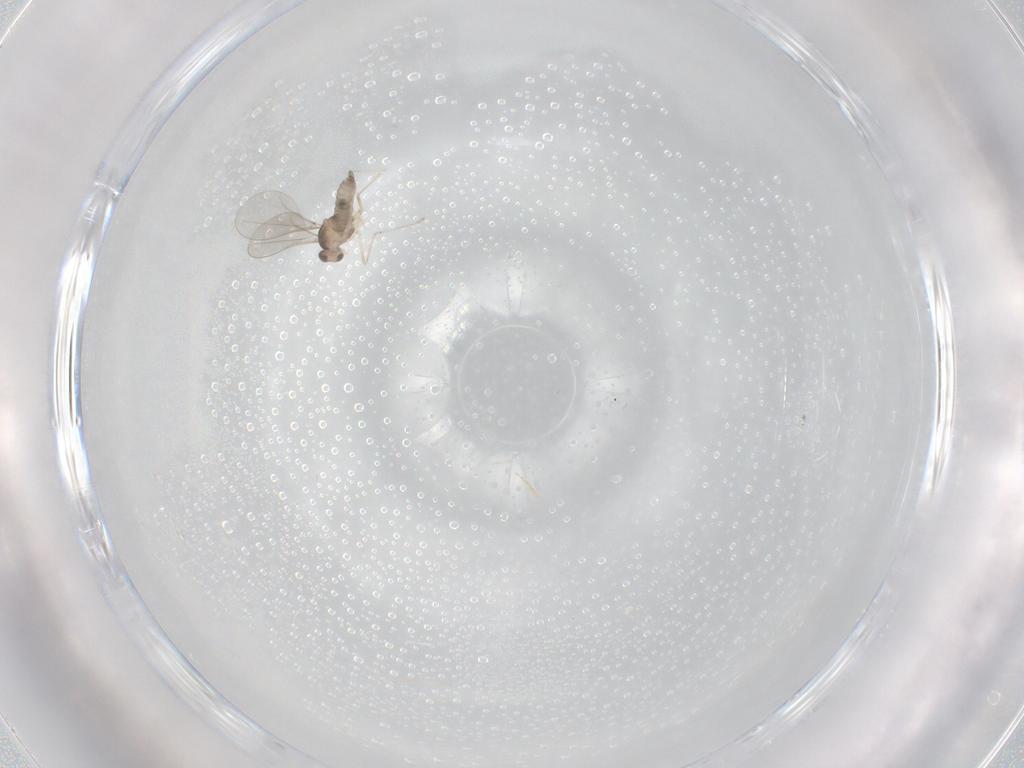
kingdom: Animalia
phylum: Arthropoda
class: Insecta
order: Diptera
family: Cecidomyiidae
